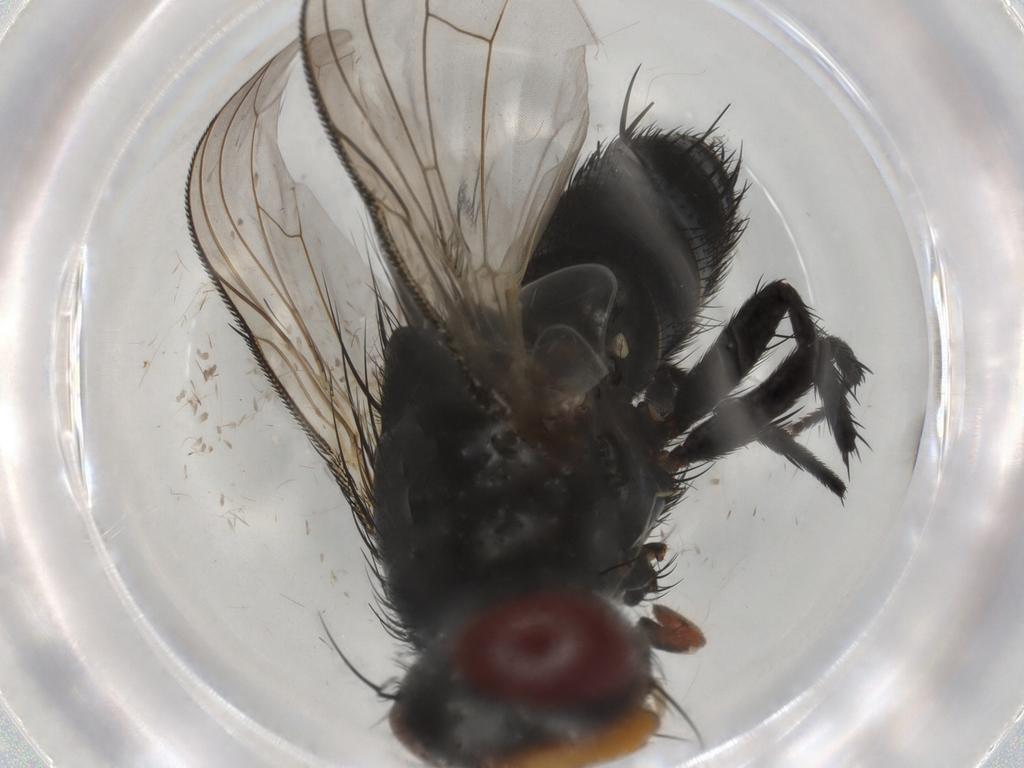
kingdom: Animalia
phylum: Arthropoda
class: Insecta
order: Diptera
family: Tachinidae
